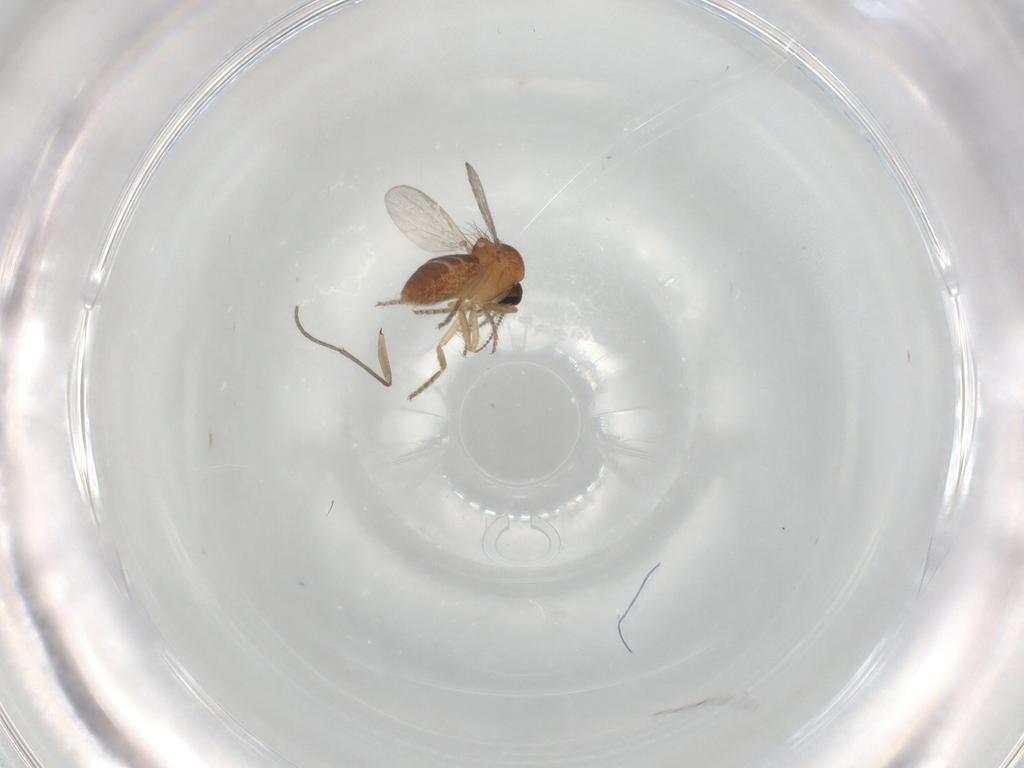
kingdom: Animalia
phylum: Arthropoda
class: Insecta
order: Diptera
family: Ceratopogonidae
